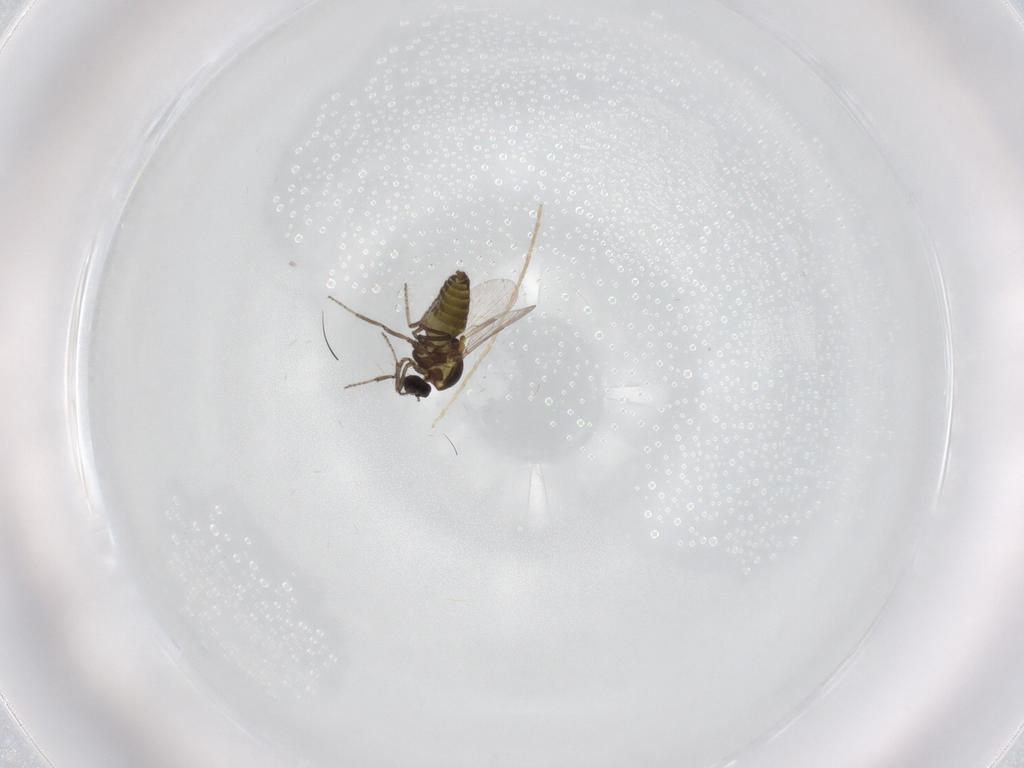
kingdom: Animalia
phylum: Arthropoda
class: Insecta
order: Diptera
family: Chironomidae
